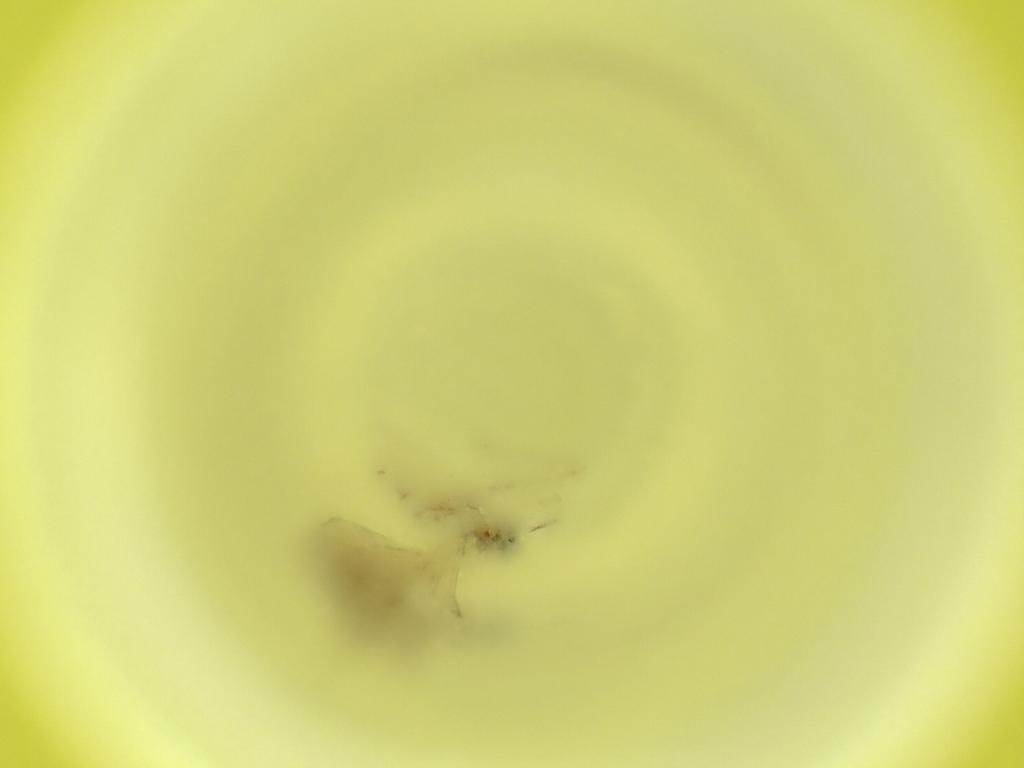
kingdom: Animalia
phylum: Arthropoda
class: Insecta
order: Diptera
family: Cecidomyiidae
